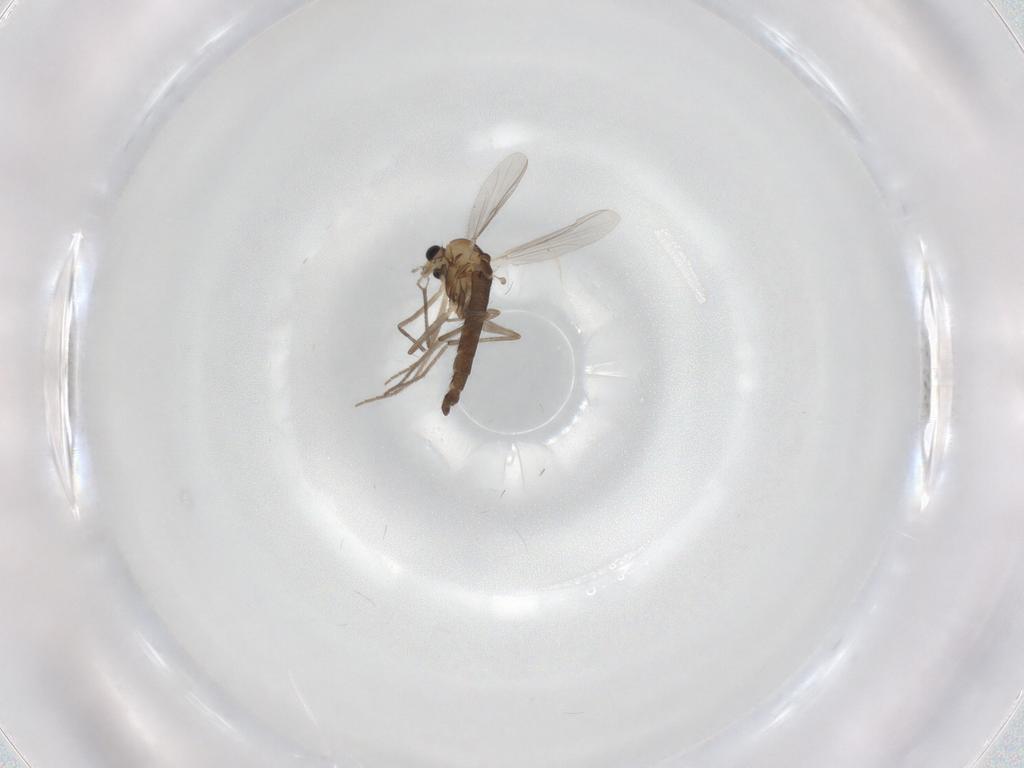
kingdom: Animalia
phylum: Arthropoda
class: Insecta
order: Diptera
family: Chironomidae
